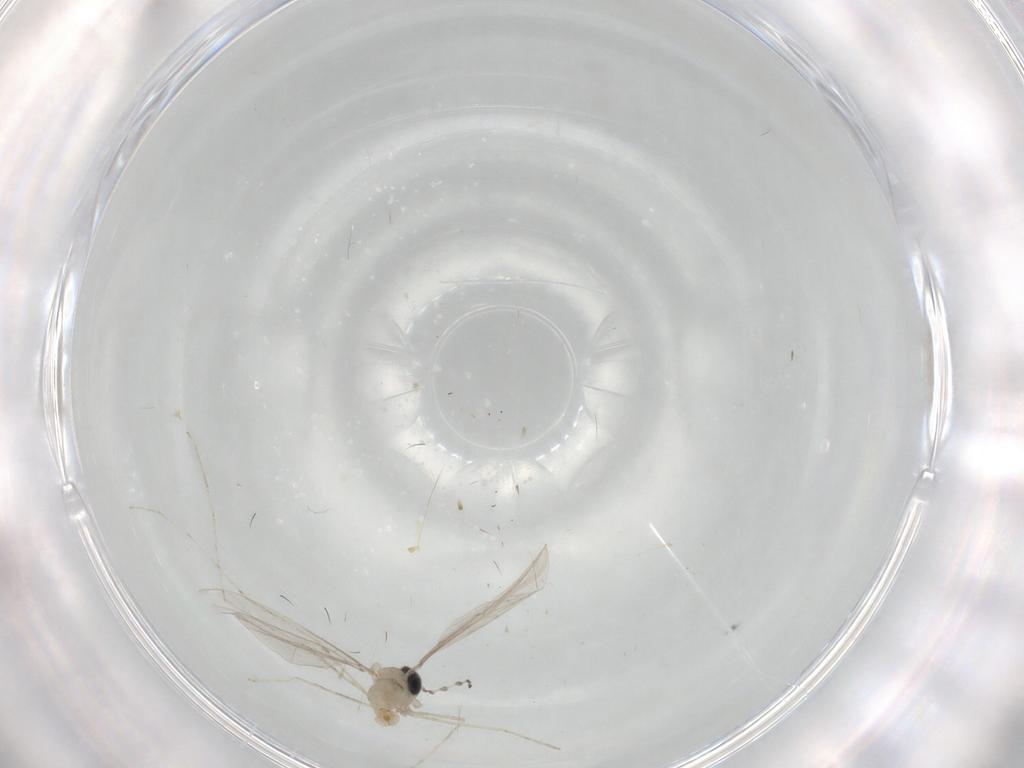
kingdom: Animalia
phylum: Arthropoda
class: Insecta
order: Diptera
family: Cecidomyiidae
